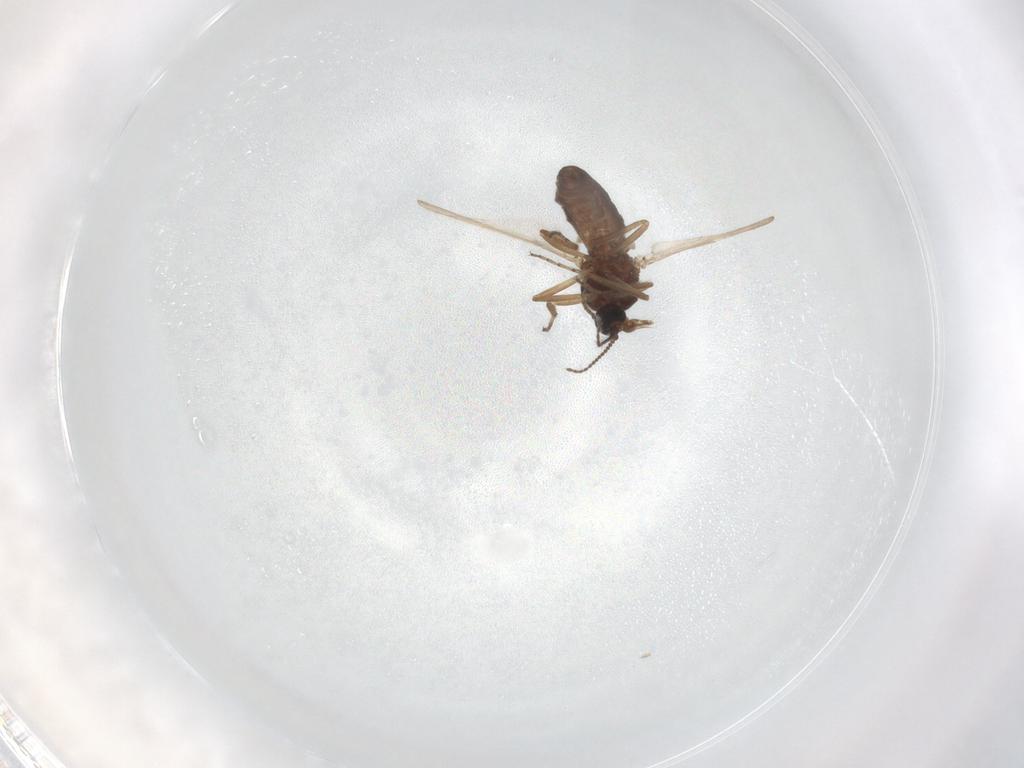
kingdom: Animalia
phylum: Arthropoda
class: Insecta
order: Diptera
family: Ceratopogonidae
